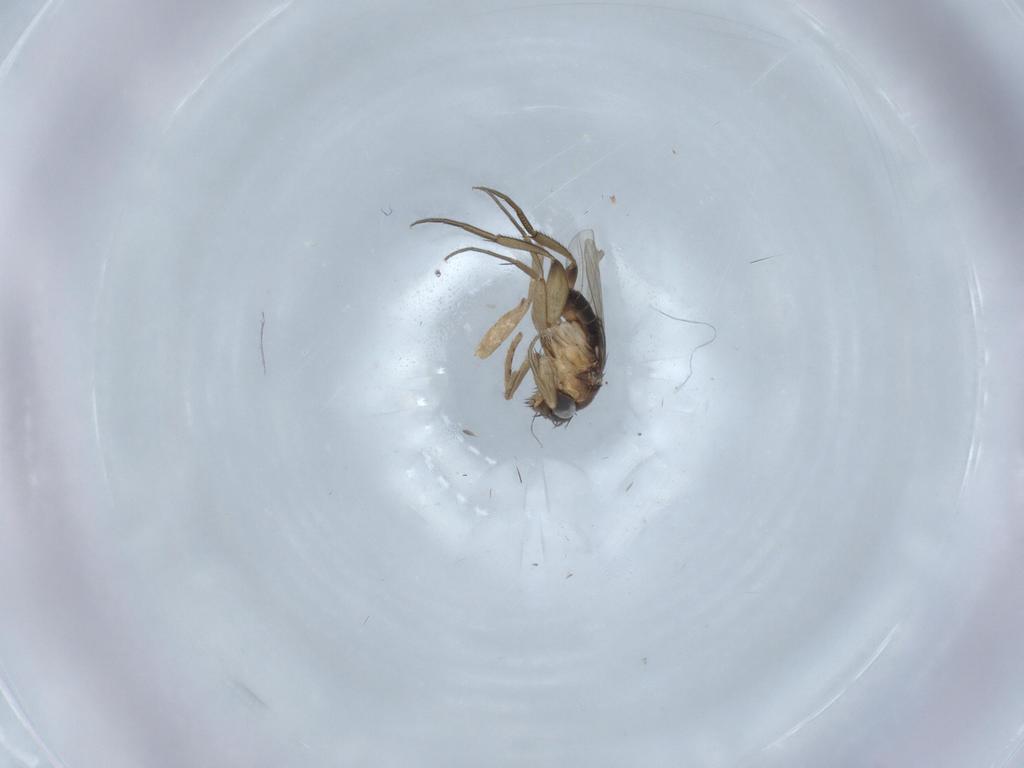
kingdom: Animalia
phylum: Arthropoda
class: Insecta
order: Diptera
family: Phoridae
